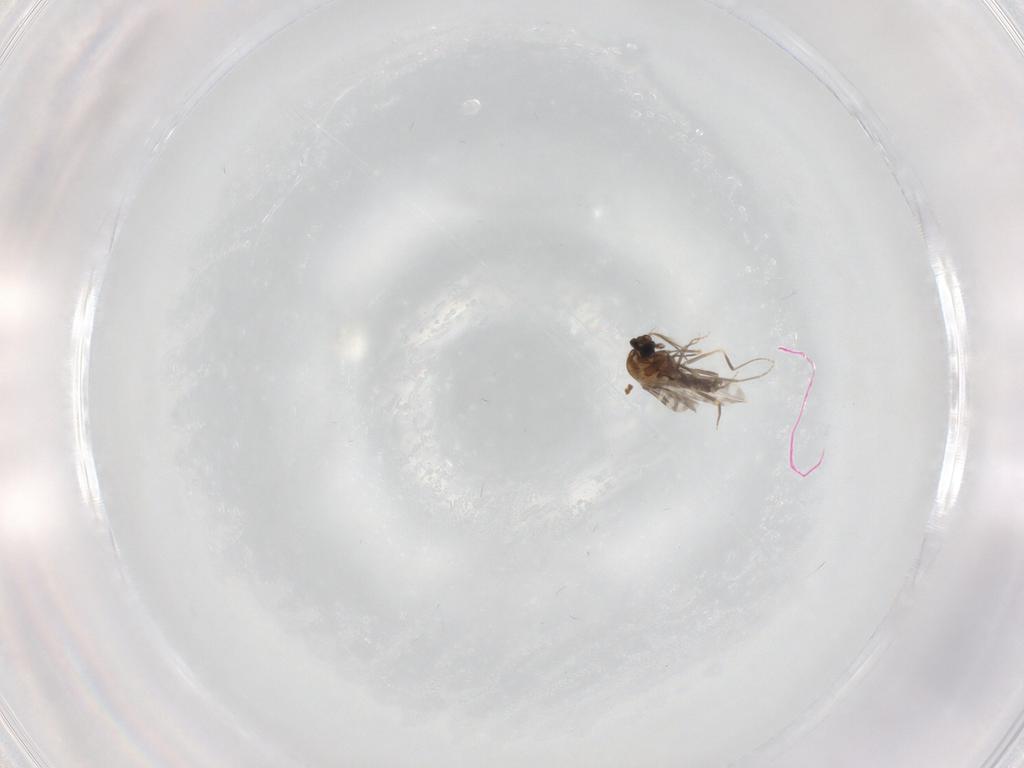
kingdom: Animalia
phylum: Arthropoda
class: Insecta
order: Diptera
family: Ceratopogonidae
